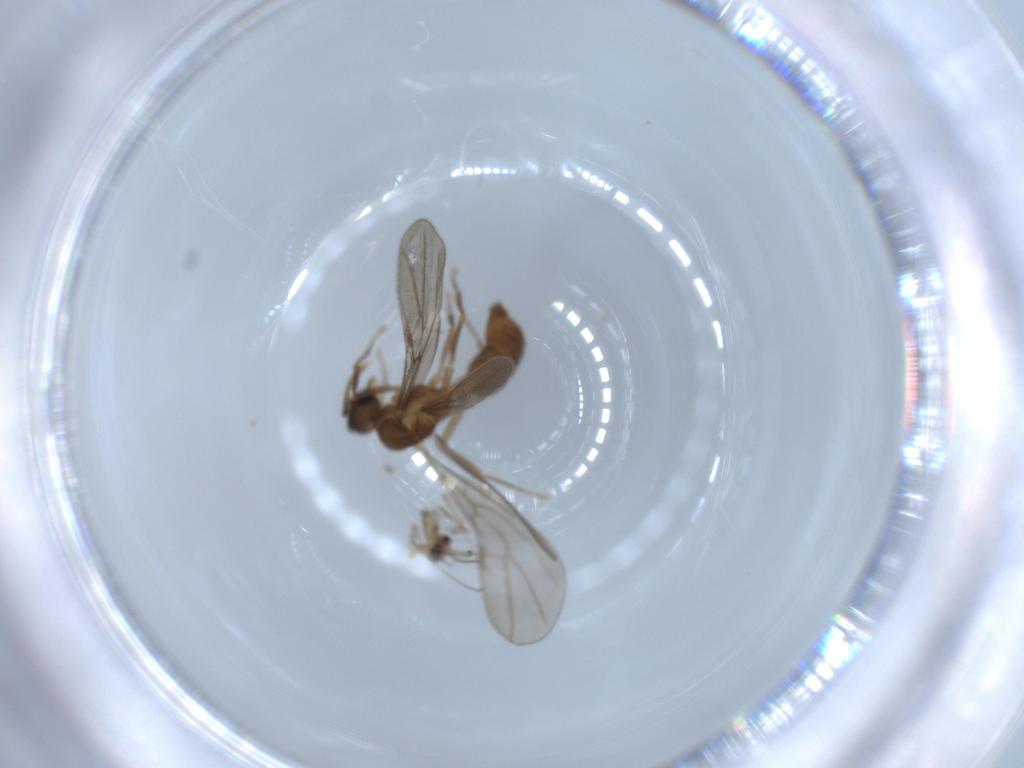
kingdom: Animalia
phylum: Arthropoda
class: Insecta
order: Hymenoptera
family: Formicidae
